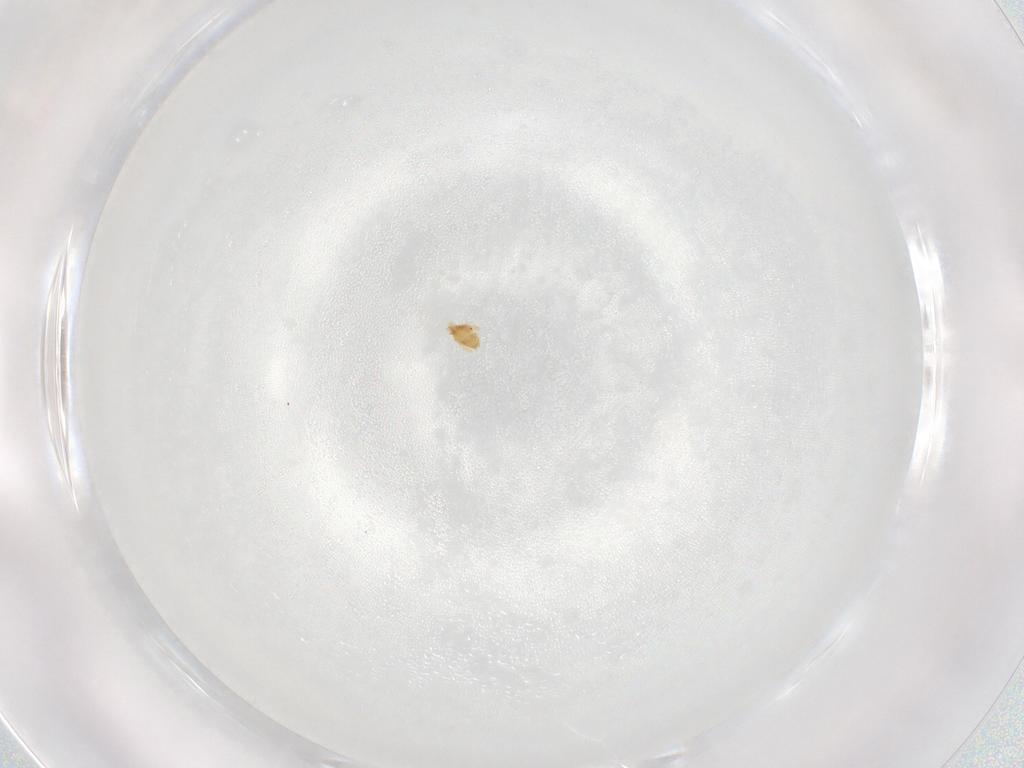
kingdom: Animalia
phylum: Arthropoda
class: Arachnida
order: Trombidiformes
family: Eupodidae
